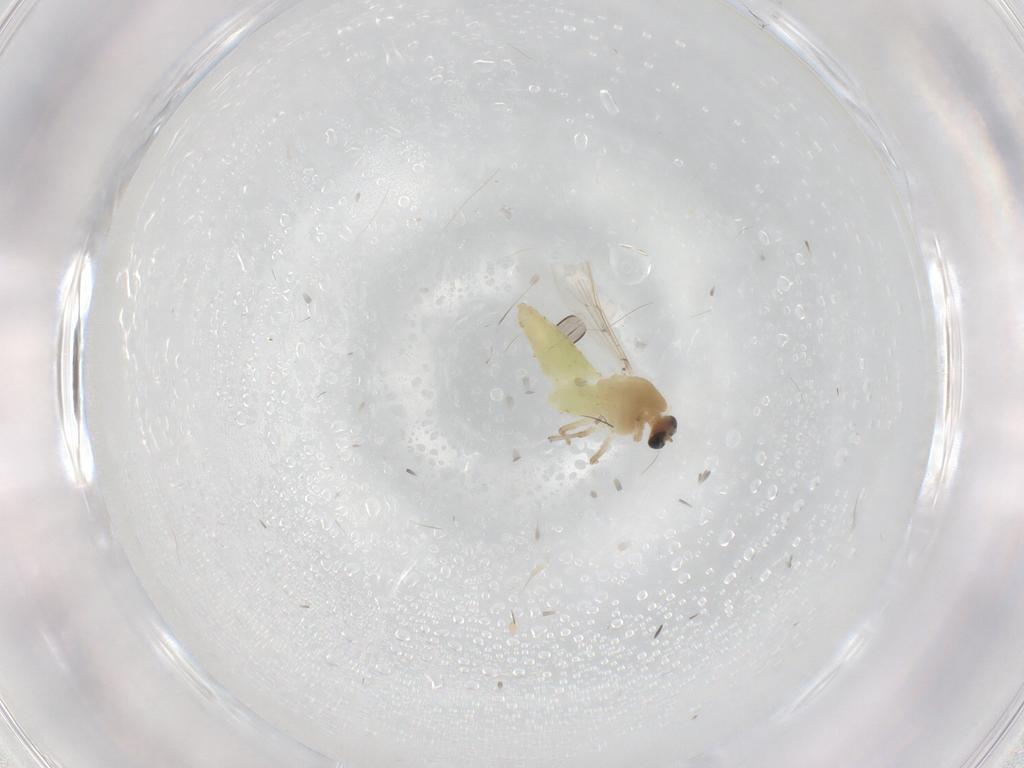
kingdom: Animalia
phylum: Arthropoda
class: Insecta
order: Diptera
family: Chironomidae
